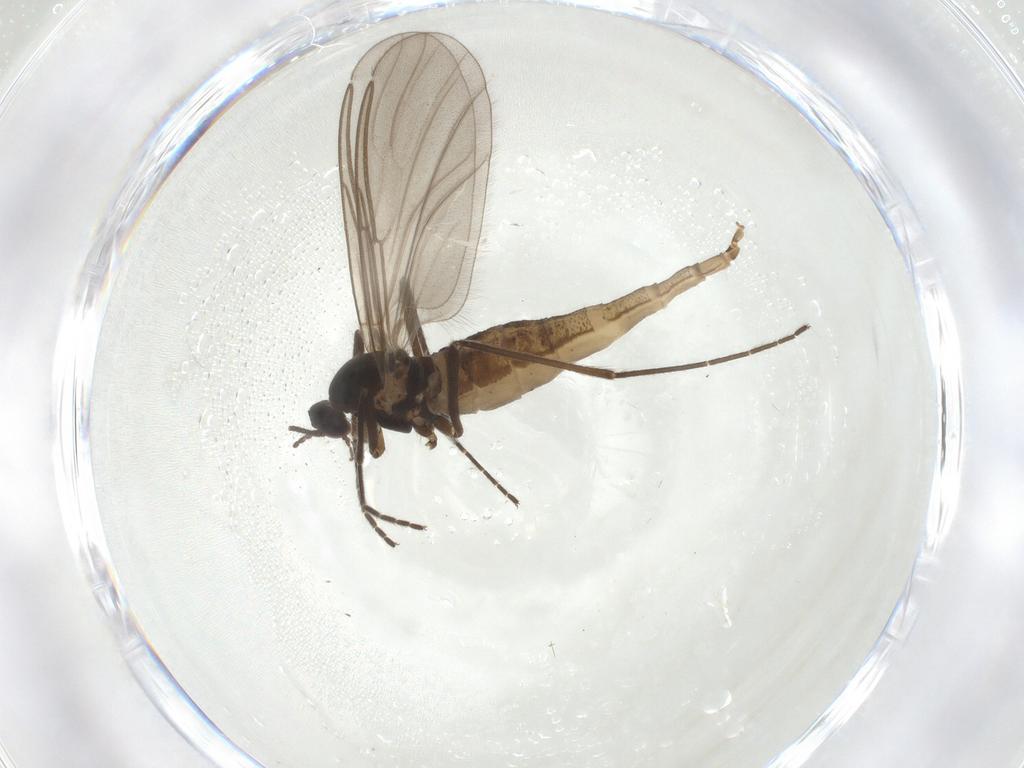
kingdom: Animalia
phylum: Arthropoda
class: Insecta
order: Diptera
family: Cecidomyiidae
